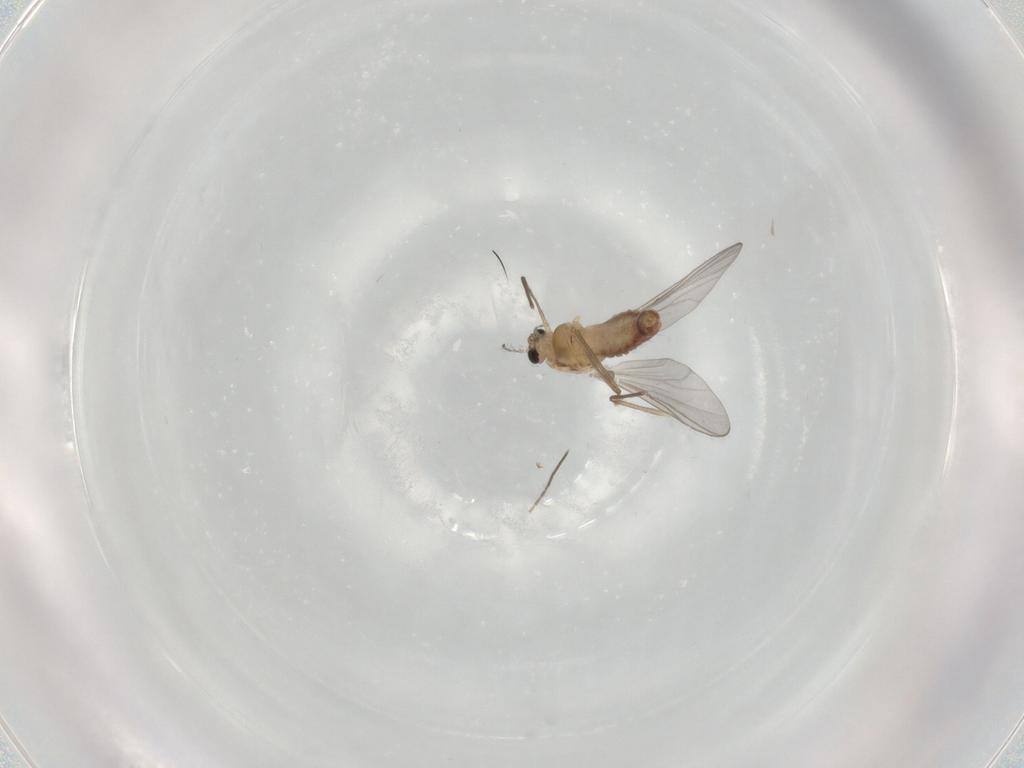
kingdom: Animalia
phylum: Arthropoda
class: Insecta
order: Diptera
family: Chironomidae
